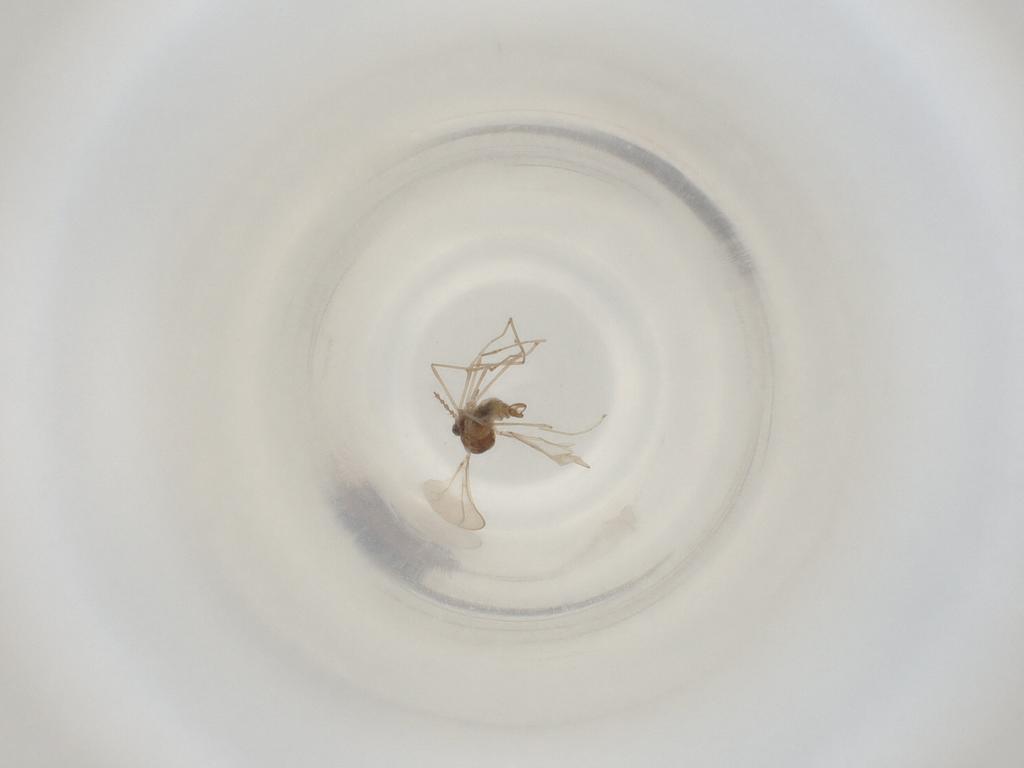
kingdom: Animalia
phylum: Arthropoda
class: Insecta
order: Diptera
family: Cecidomyiidae
